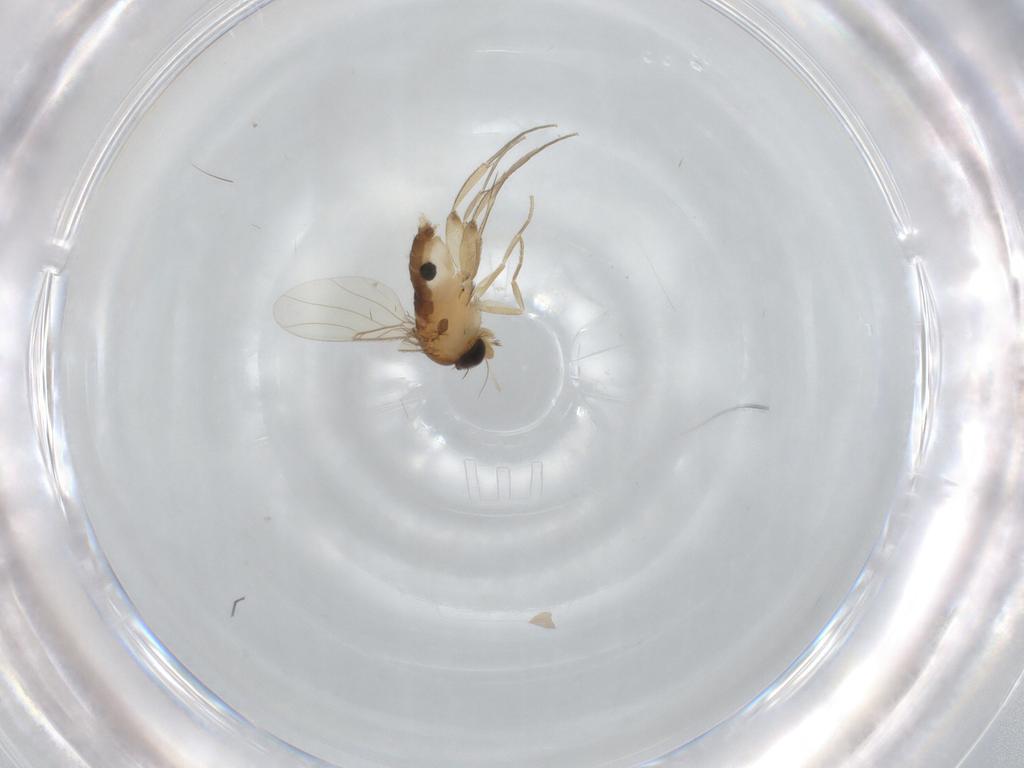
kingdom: Animalia
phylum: Arthropoda
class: Insecta
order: Diptera
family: Phoridae
